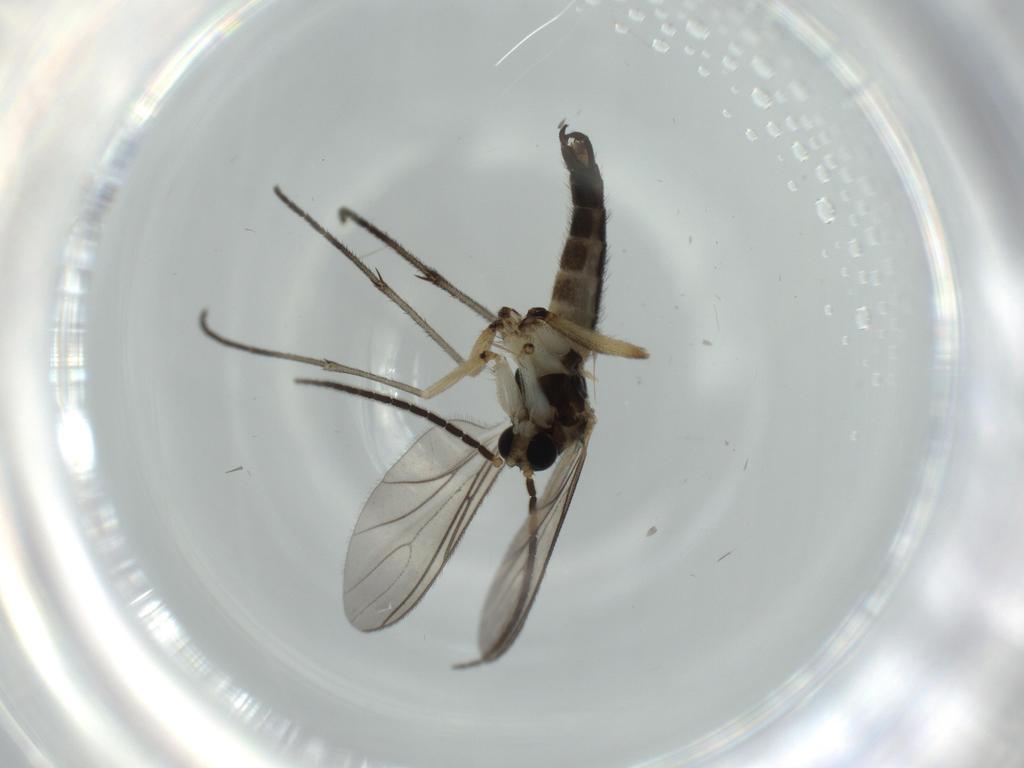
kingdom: Animalia
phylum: Arthropoda
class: Insecta
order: Diptera
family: Sciaridae
